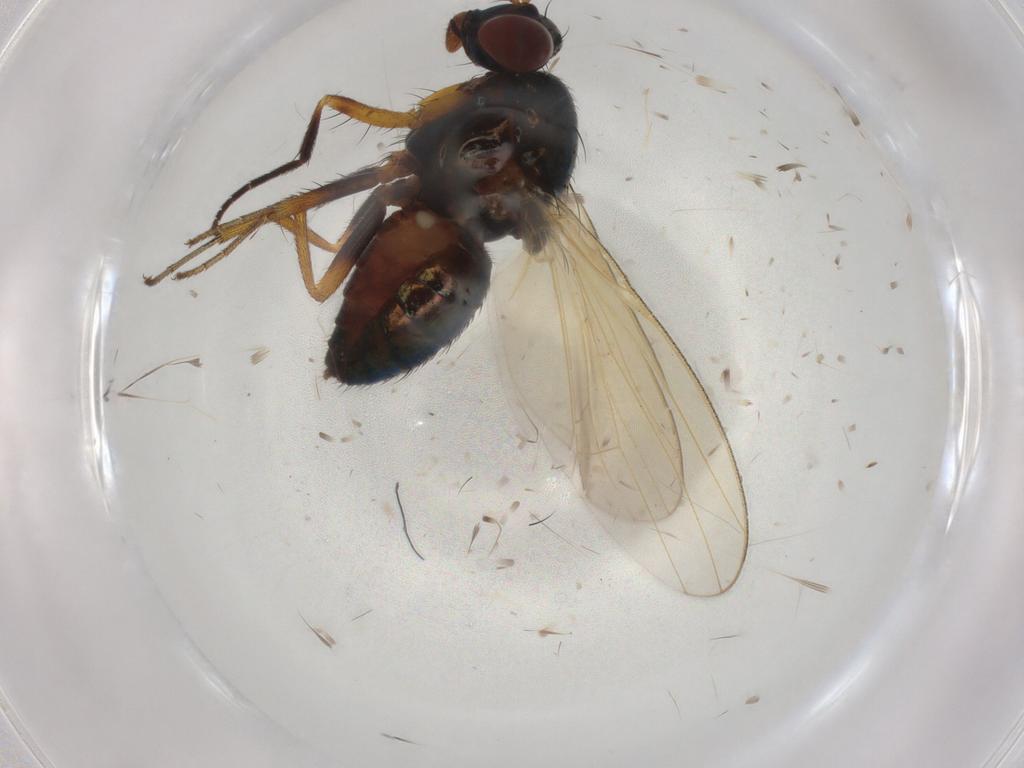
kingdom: Animalia
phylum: Arthropoda
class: Insecta
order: Diptera
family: Lauxaniidae
